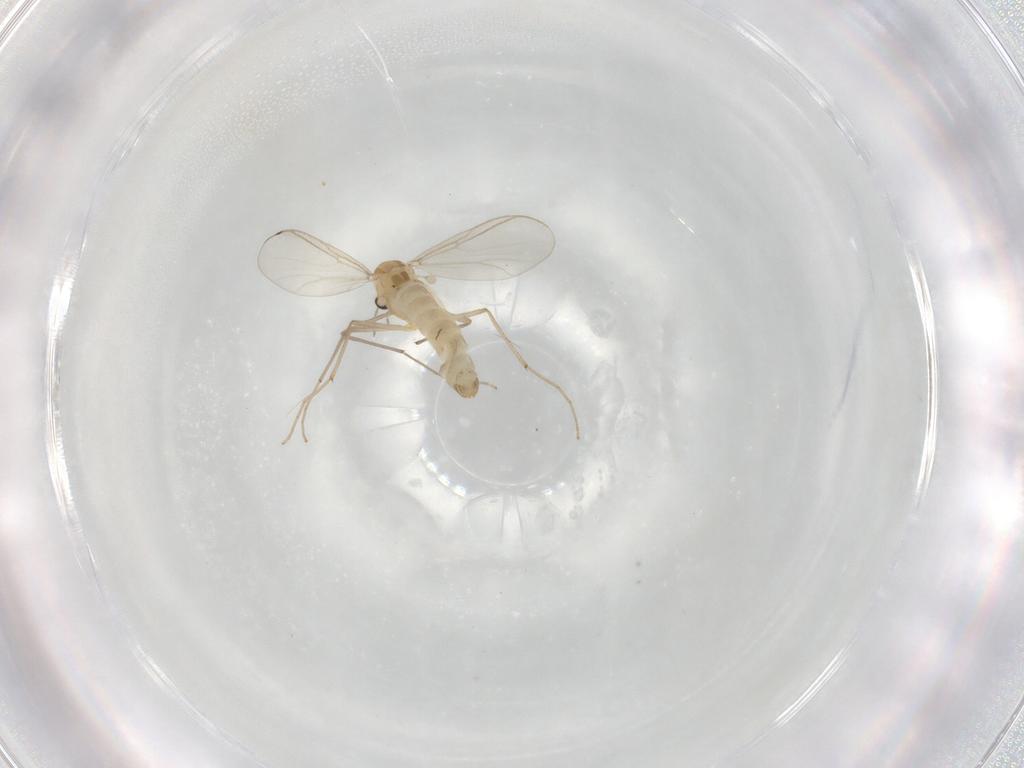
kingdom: Animalia
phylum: Arthropoda
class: Insecta
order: Diptera
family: Chironomidae
